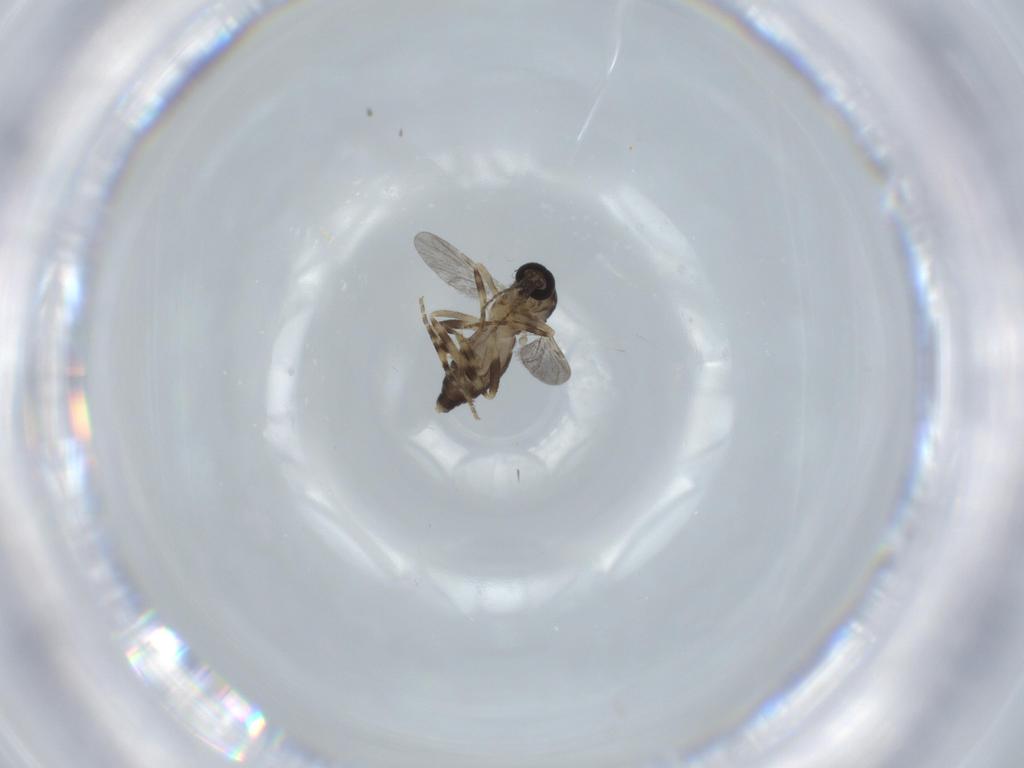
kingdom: Animalia
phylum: Arthropoda
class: Insecta
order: Diptera
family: Ceratopogonidae
